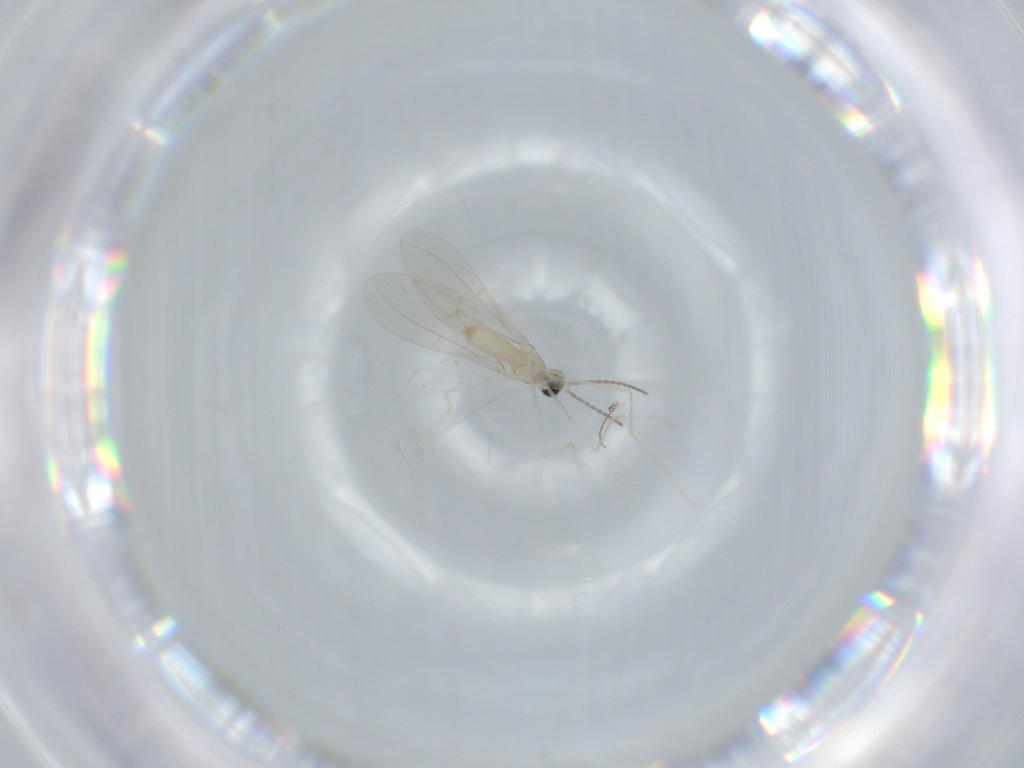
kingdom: Animalia
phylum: Arthropoda
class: Insecta
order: Diptera
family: Cecidomyiidae
